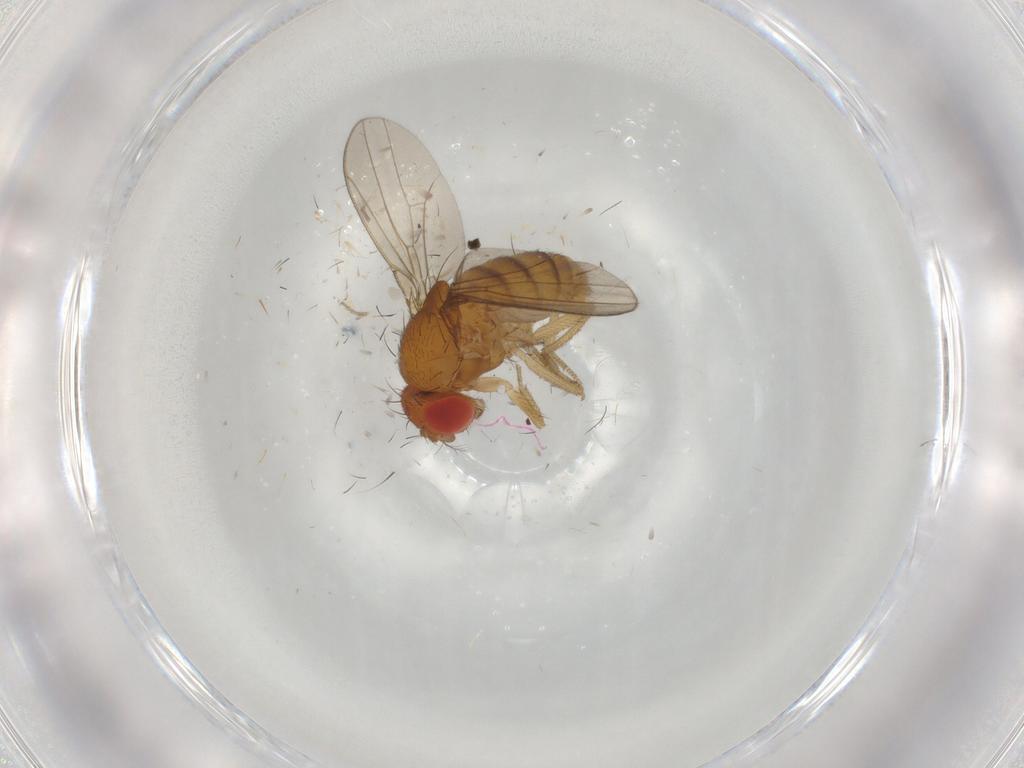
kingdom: Animalia
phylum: Arthropoda
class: Insecta
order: Diptera
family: Drosophilidae
